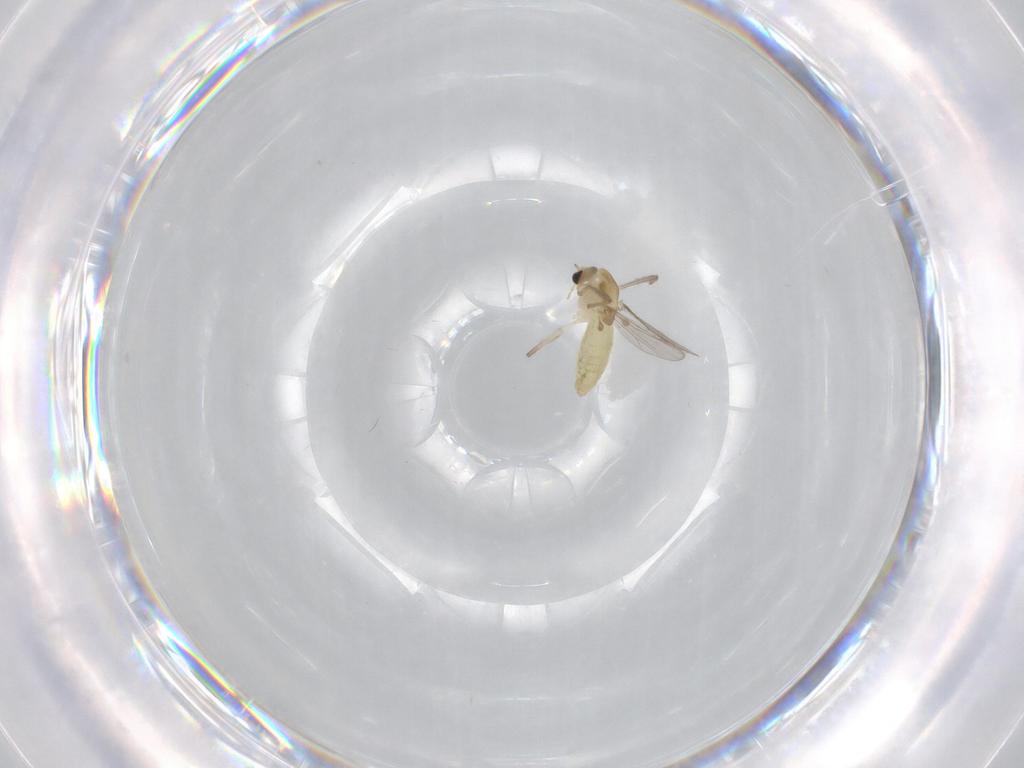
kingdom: Animalia
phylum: Arthropoda
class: Insecta
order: Diptera
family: Chironomidae
